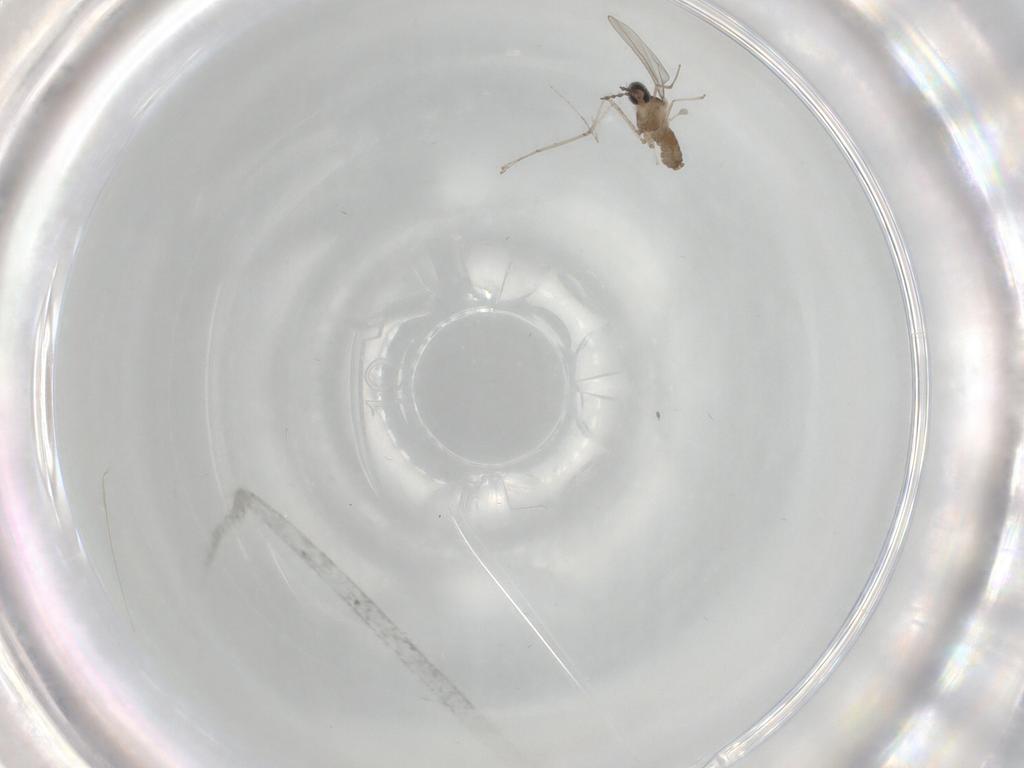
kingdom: Animalia
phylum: Arthropoda
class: Insecta
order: Diptera
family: Cecidomyiidae
